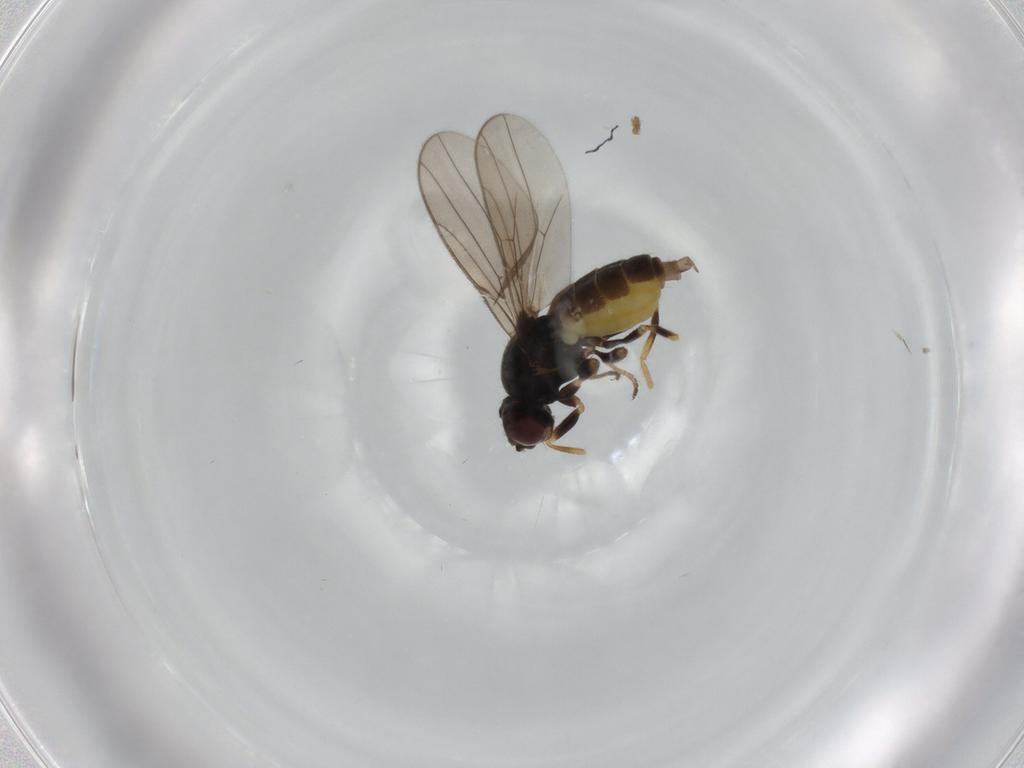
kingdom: Animalia
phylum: Arthropoda
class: Insecta
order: Diptera
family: Chloropidae
